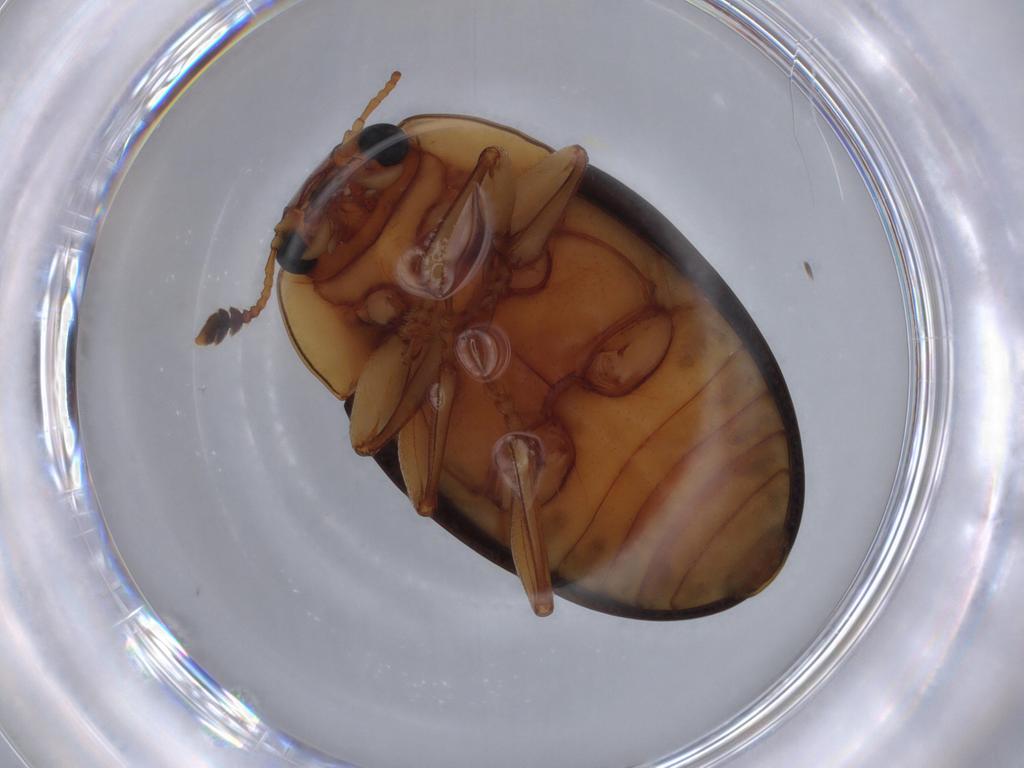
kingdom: Animalia
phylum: Arthropoda
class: Insecta
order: Coleoptera
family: Erotylidae
